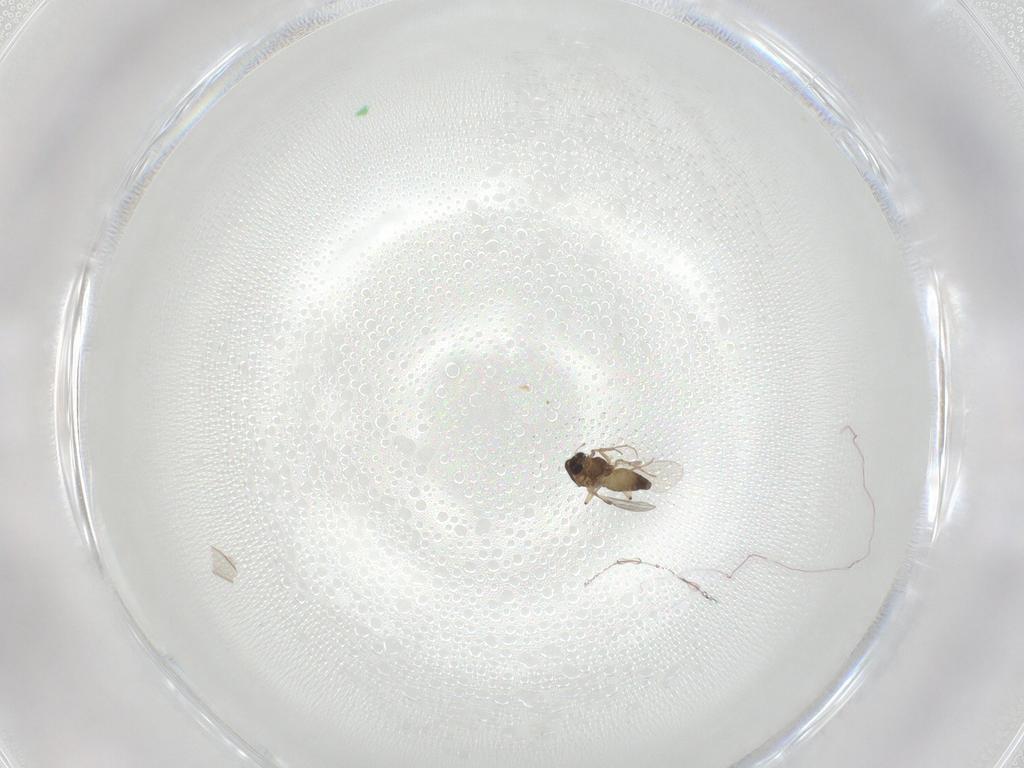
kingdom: Animalia
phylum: Arthropoda
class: Insecta
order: Diptera
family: Chironomidae
